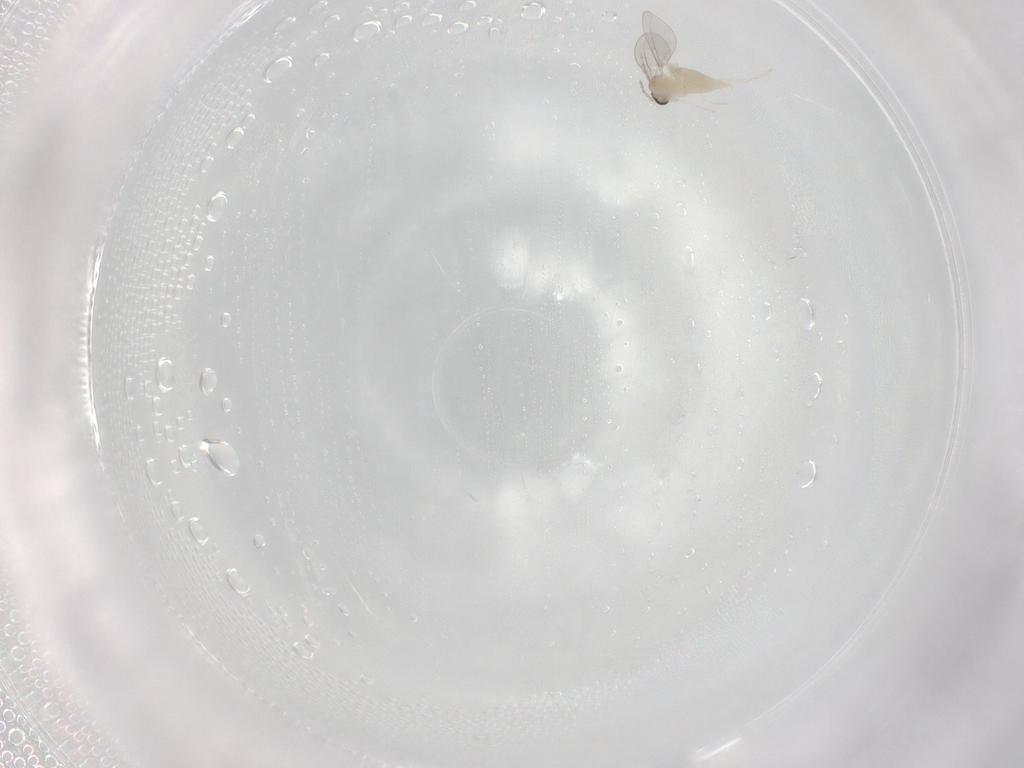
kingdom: Animalia
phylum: Arthropoda
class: Insecta
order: Diptera
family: Cecidomyiidae
